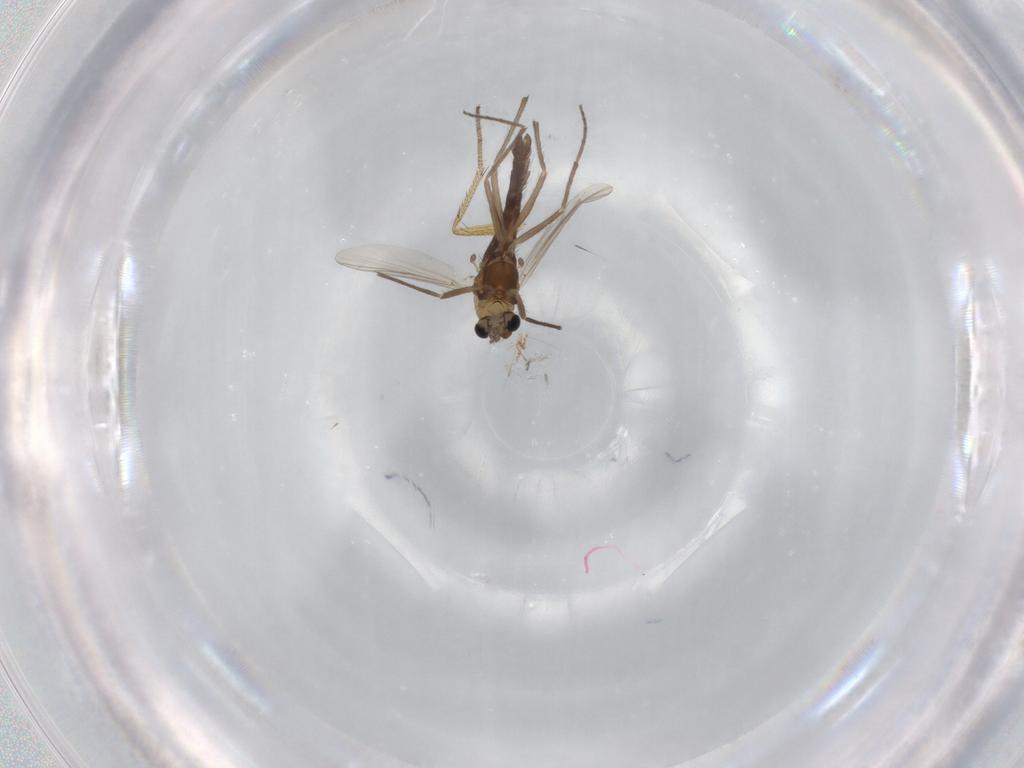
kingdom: Animalia
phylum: Arthropoda
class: Insecta
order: Diptera
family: Chironomidae
